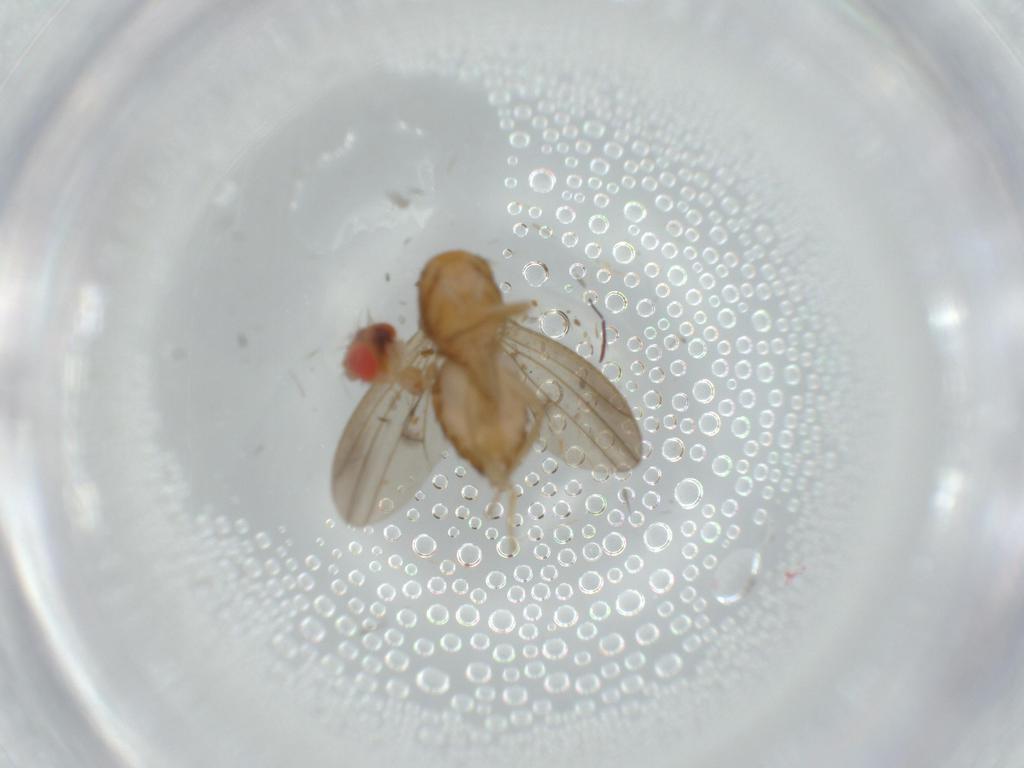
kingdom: Animalia
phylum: Arthropoda
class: Insecta
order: Diptera
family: Drosophilidae
